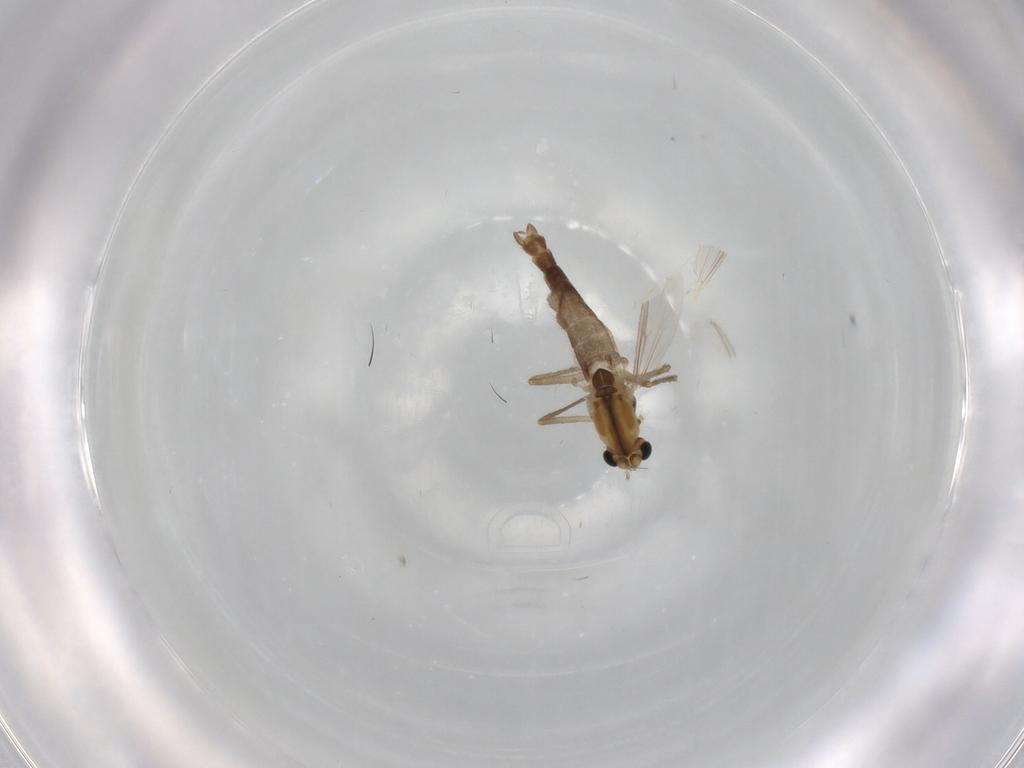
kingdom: Animalia
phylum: Arthropoda
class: Insecta
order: Diptera
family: Chironomidae
